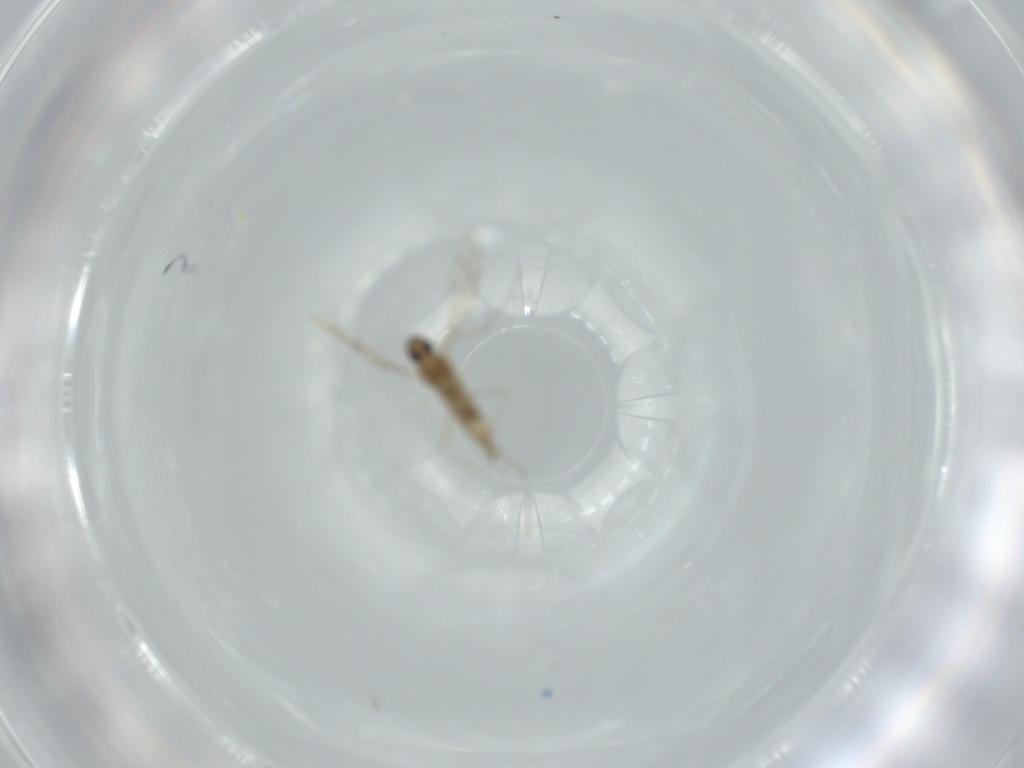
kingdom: Animalia
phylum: Arthropoda
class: Insecta
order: Diptera
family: Cecidomyiidae
